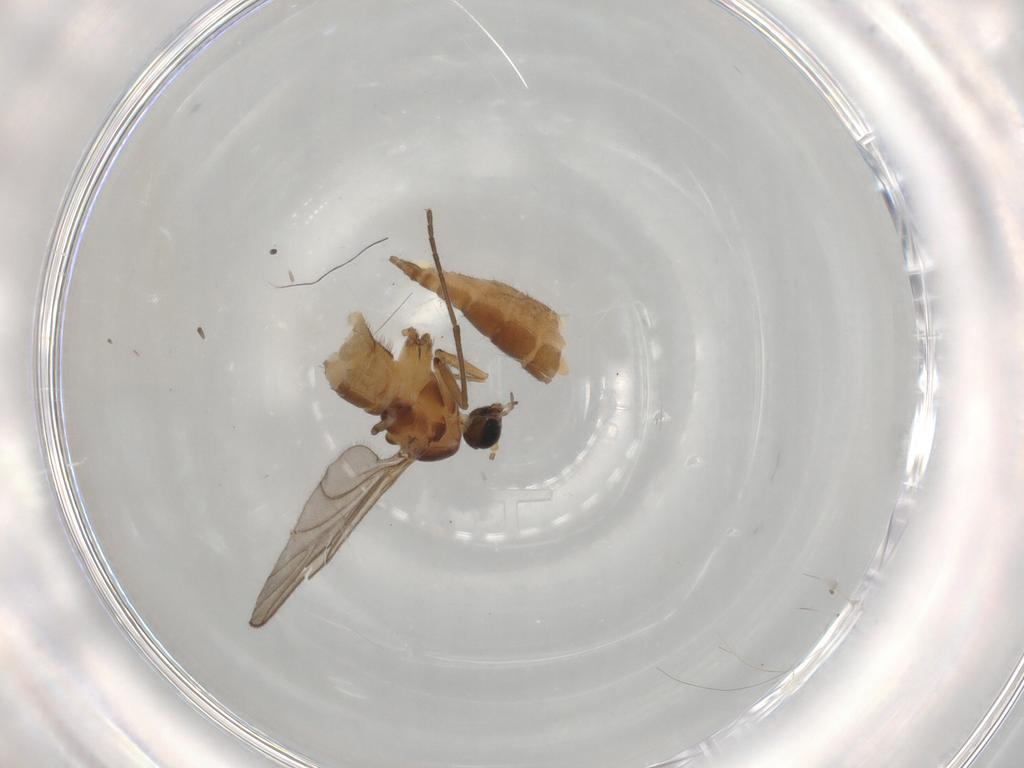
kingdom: Animalia
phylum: Arthropoda
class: Insecta
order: Diptera
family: Sciaridae
